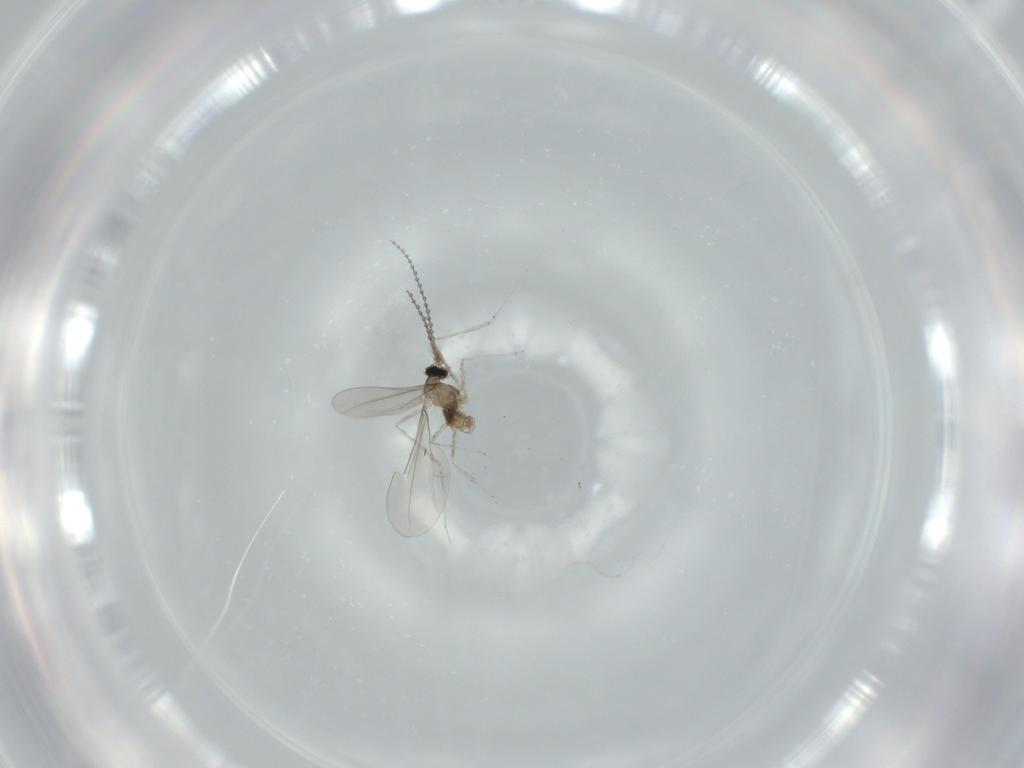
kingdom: Animalia
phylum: Arthropoda
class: Insecta
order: Diptera
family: Cecidomyiidae
